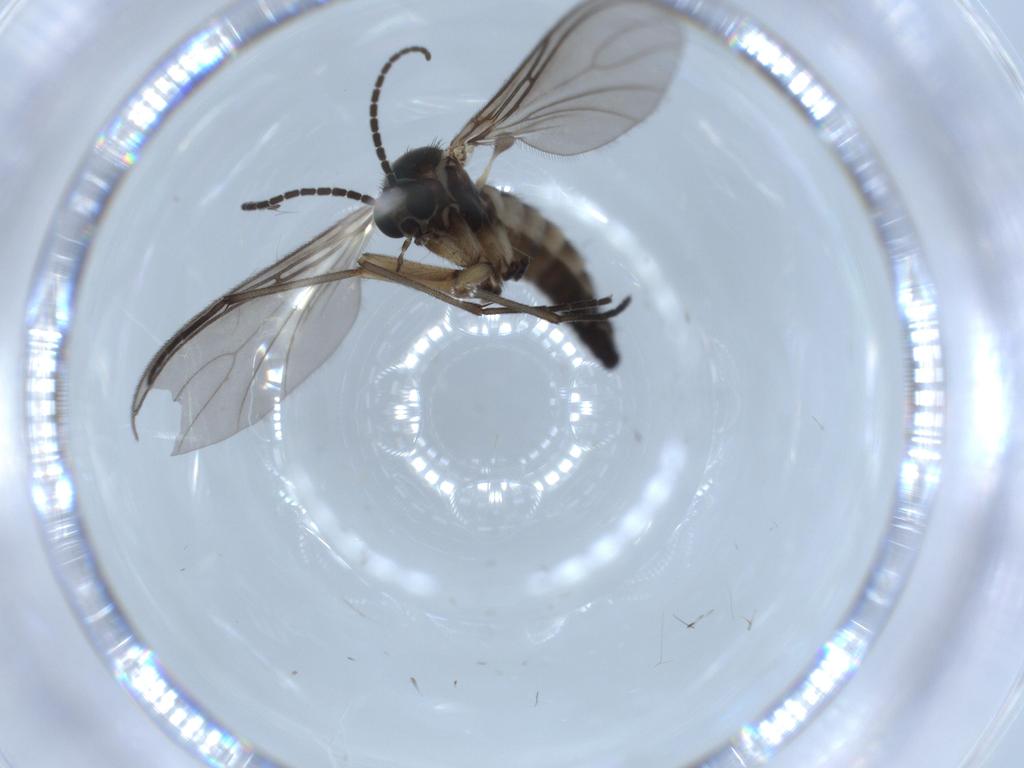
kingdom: Animalia
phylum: Arthropoda
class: Insecta
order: Diptera
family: Sciaridae
